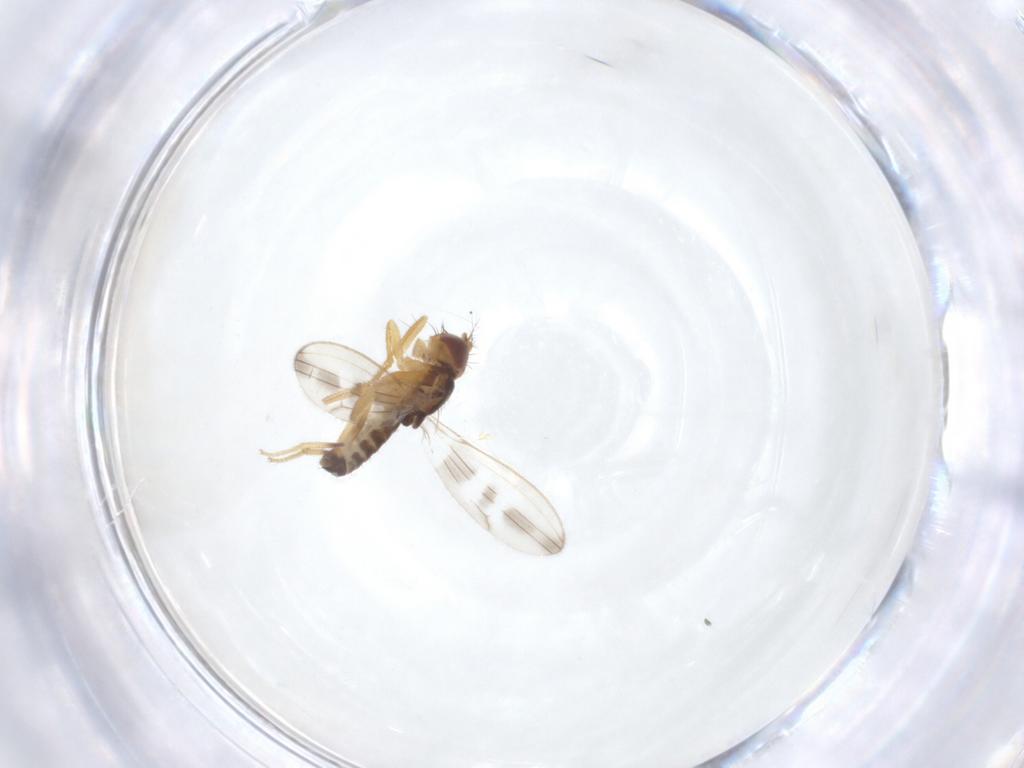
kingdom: Animalia
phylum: Arthropoda
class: Insecta
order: Diptera
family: Periscelididae
